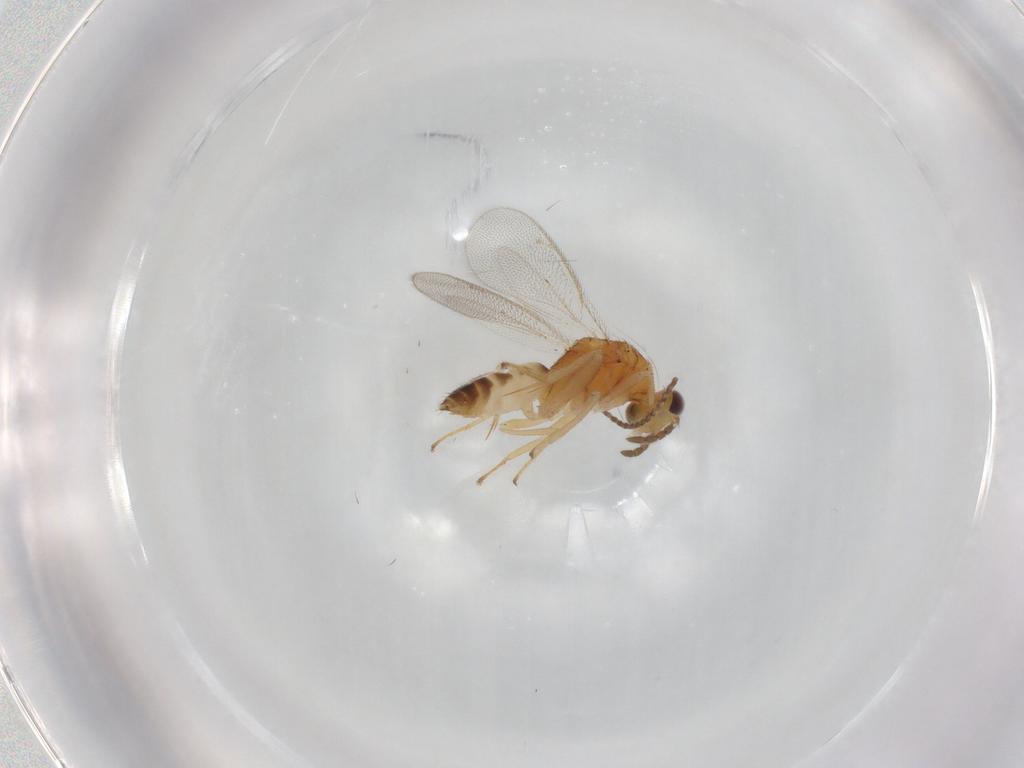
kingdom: Animalia
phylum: Arthropoda
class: Insecta
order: Hymenoptera
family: Eulophidae
